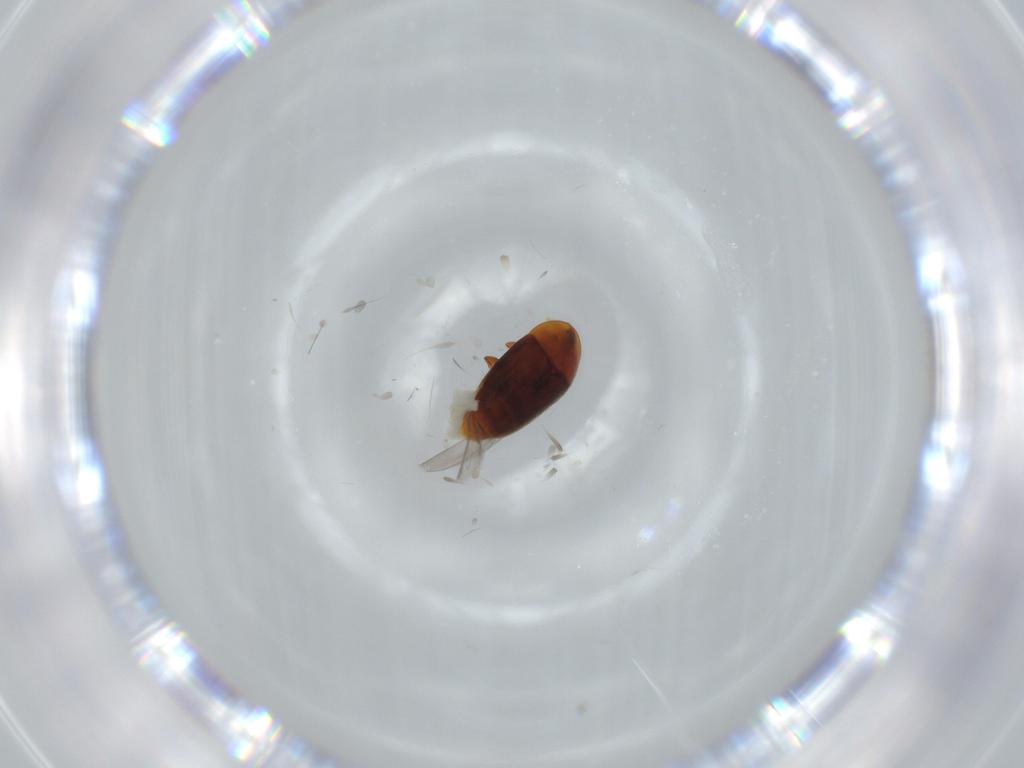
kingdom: Animalia
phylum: Arthropoda
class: Insecta
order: Coleoptera
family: Corylophidae
